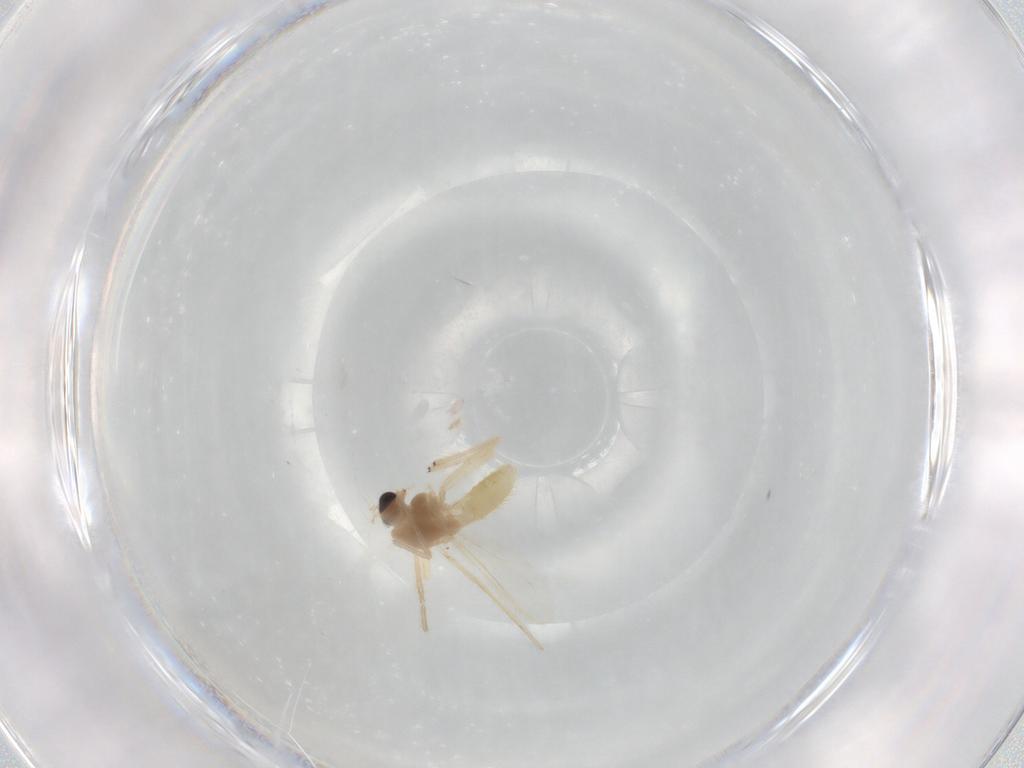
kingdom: Animalia
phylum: Arthropoda
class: Insecta
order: Diptera
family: Chironomidae
